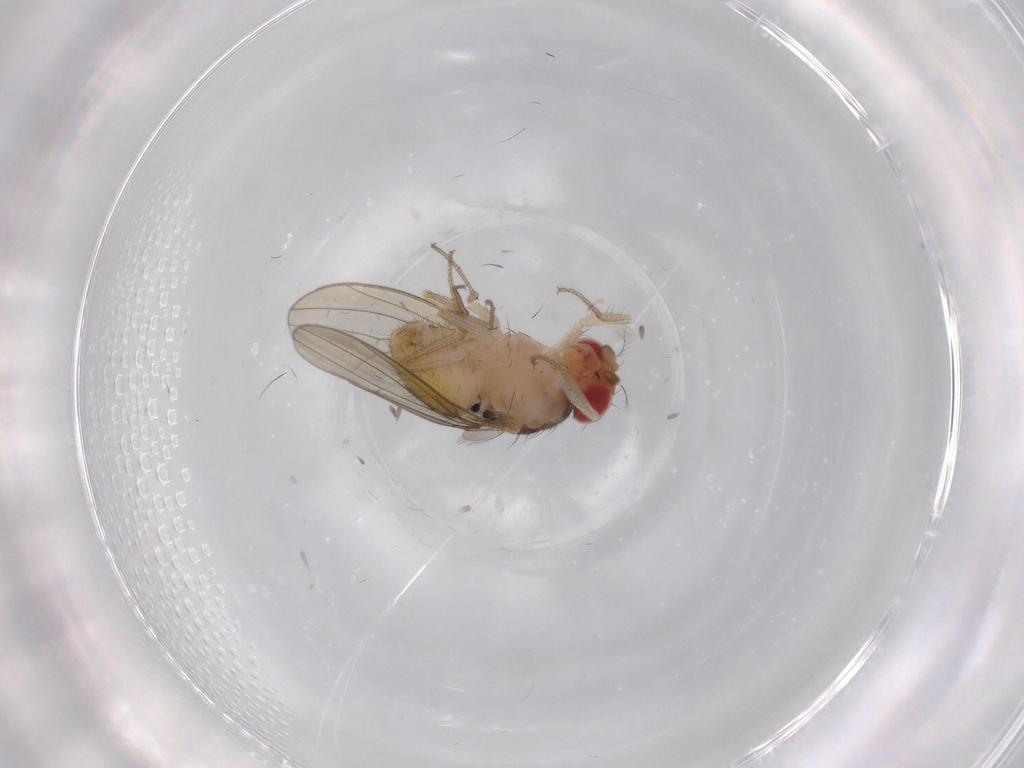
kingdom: Animalia
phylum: Arthropoda
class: Insecta
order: Diptera
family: Drosophilidae
